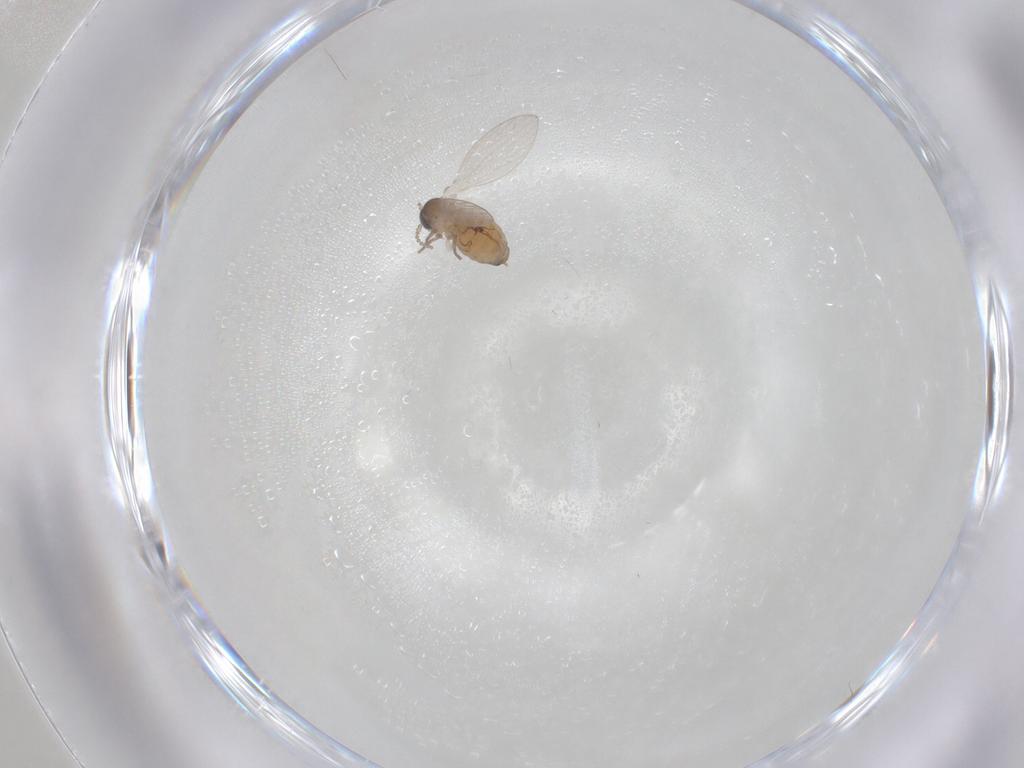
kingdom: Animalia
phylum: Arthropoda
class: Insecta
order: Diptera
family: Psychodidae
